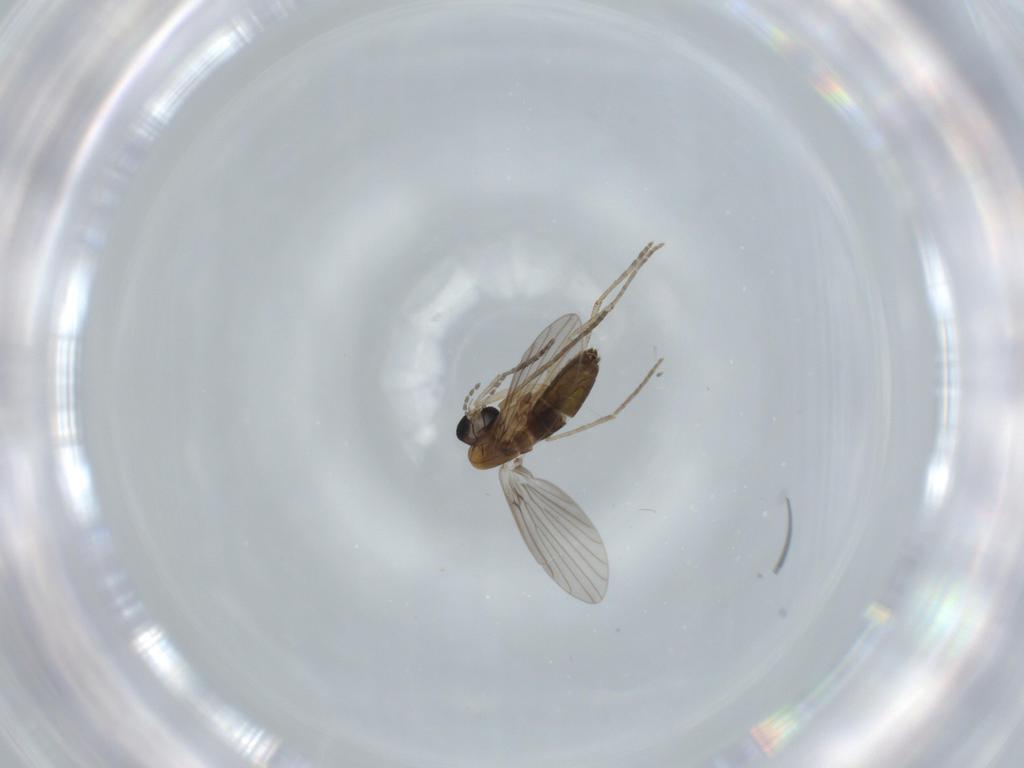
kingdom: Animalia
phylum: Arthropoda
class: Insecta
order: Diptera
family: Psychodidae
